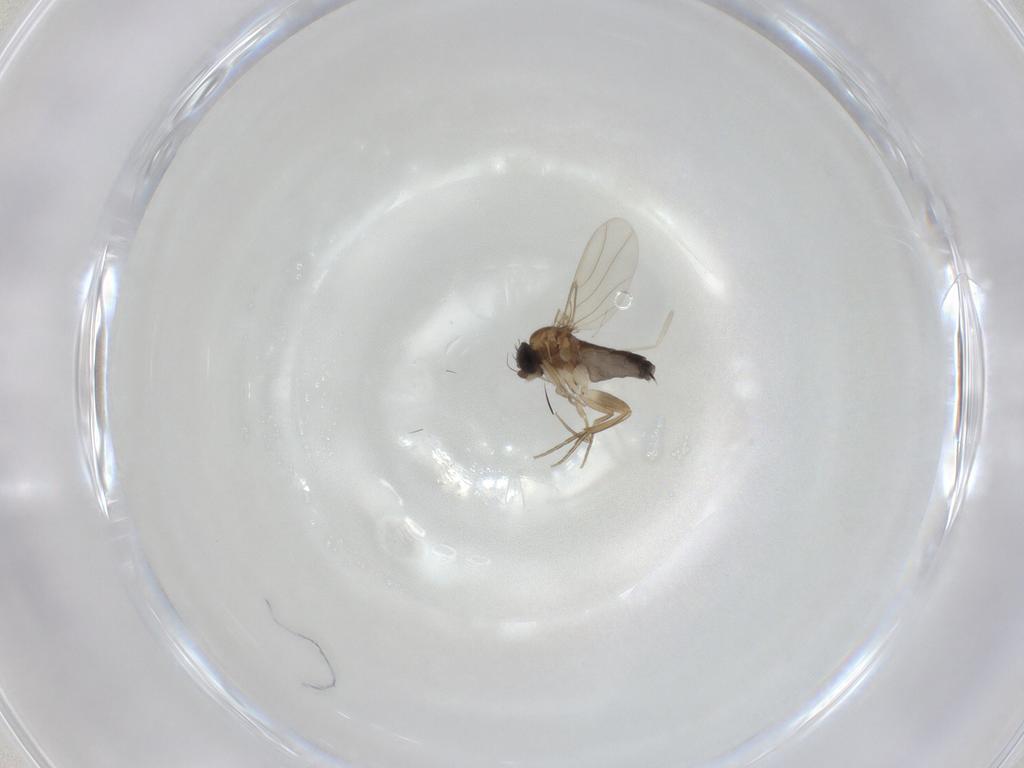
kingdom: Animalia
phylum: Arthropoda
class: Insecta
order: Diptera
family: Phoridae
